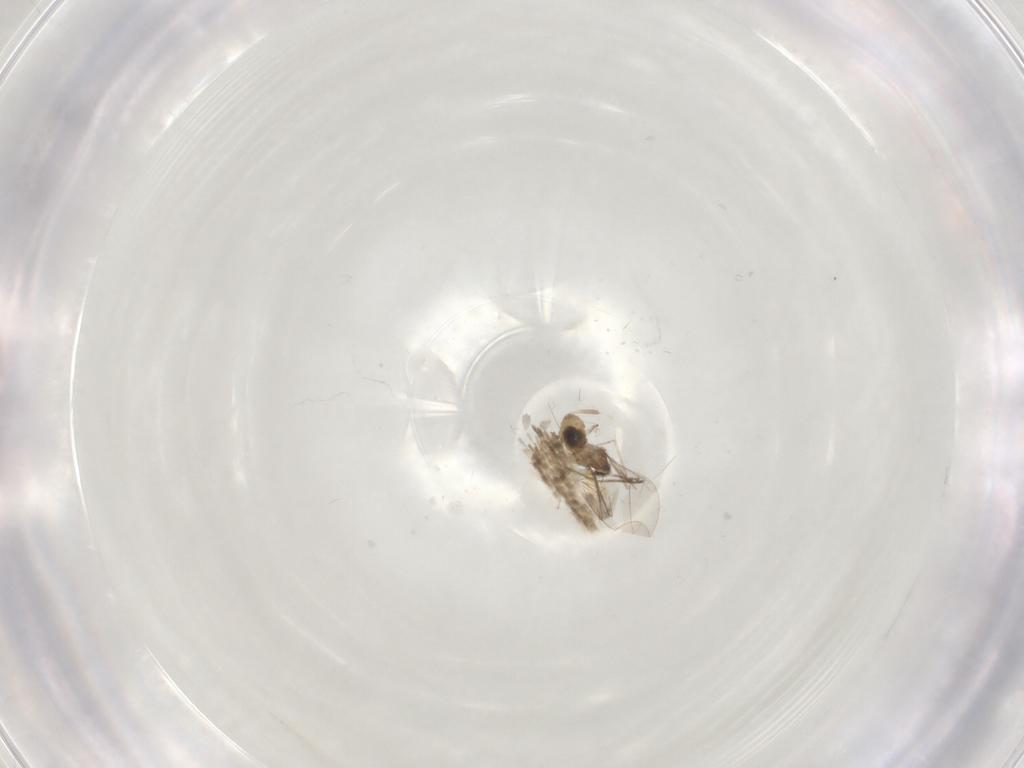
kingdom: Animalia
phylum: Arthropoda
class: Insecta
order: Diptera
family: Cecidomyiidae
